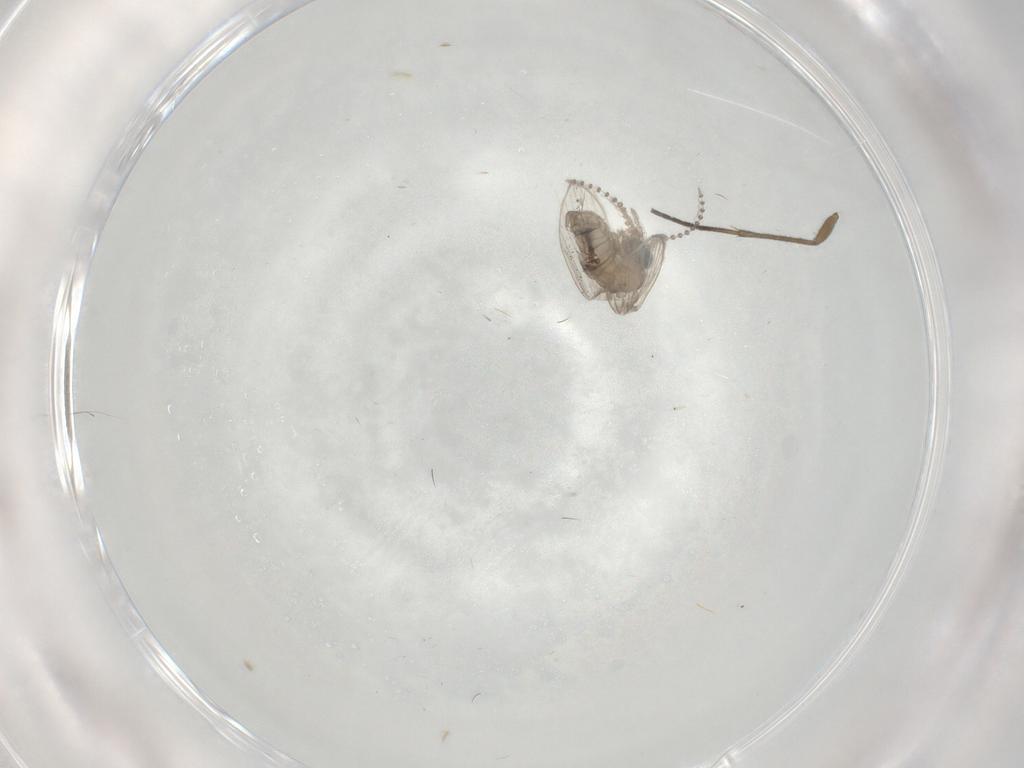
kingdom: Animalia
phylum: Arthropoda
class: Insecta
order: Diptera
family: Psychodidae
